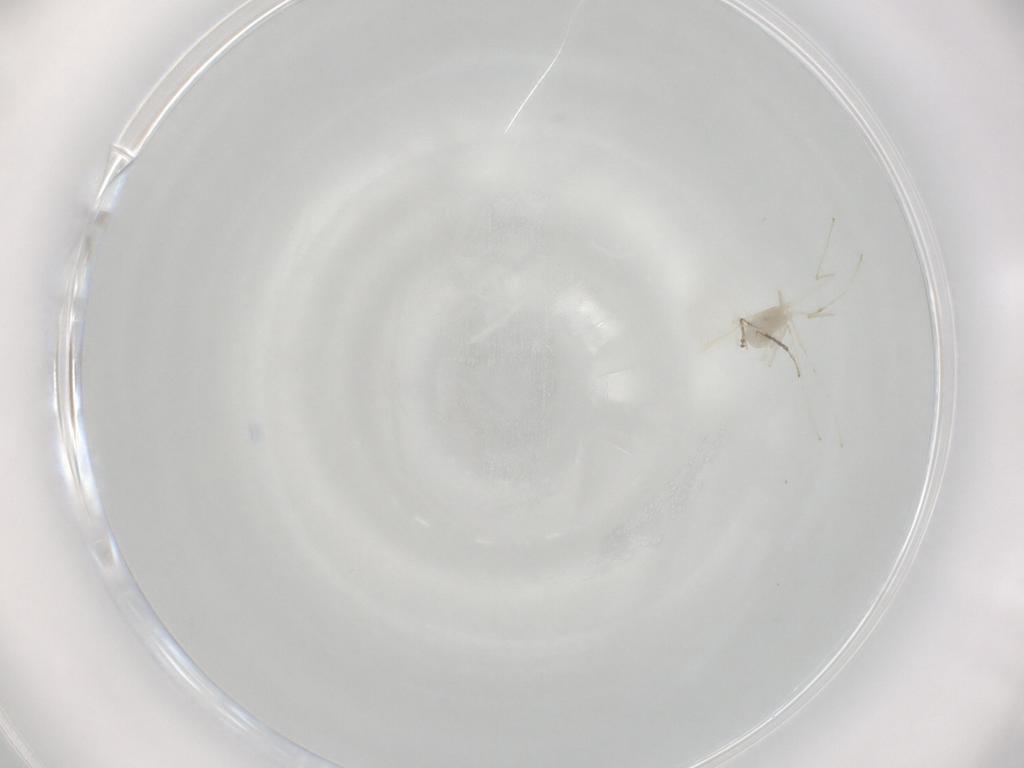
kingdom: Animalia
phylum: Arthropoda
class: Insecta
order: Diptera
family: Cecidomyiidae
